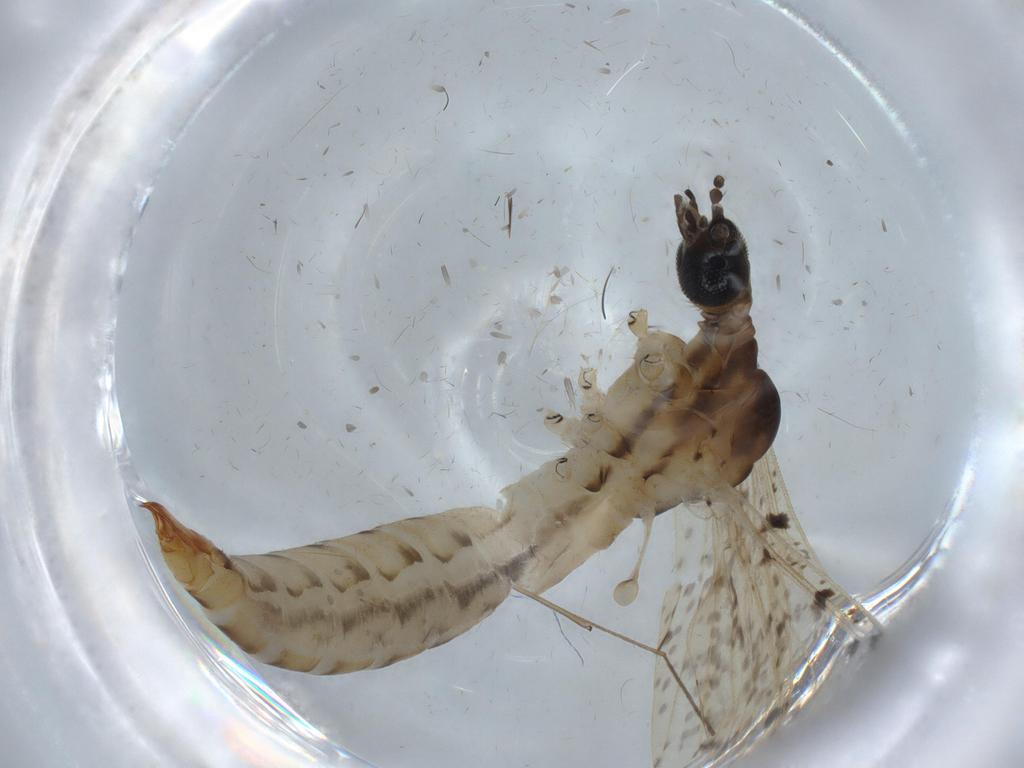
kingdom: Animalia
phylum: Arthropoda
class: Insecta
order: Diptera
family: Limoniidae
